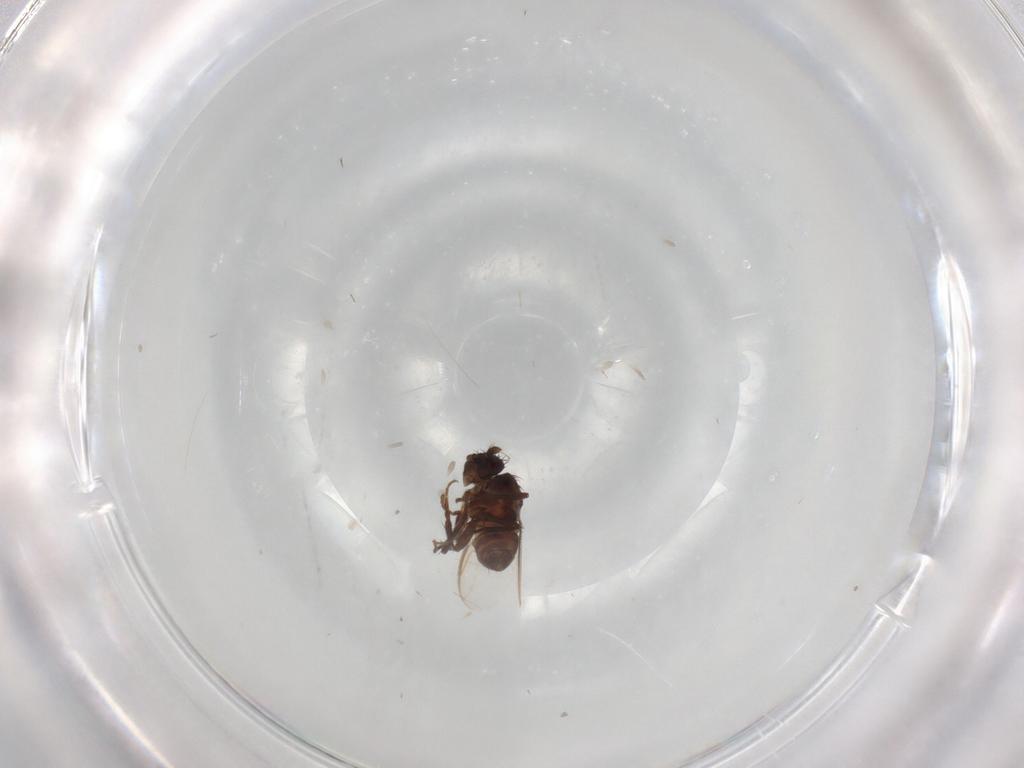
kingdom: Animalia
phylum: Arthropoda
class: Insecta
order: Diptera
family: Sphaeroceridae
